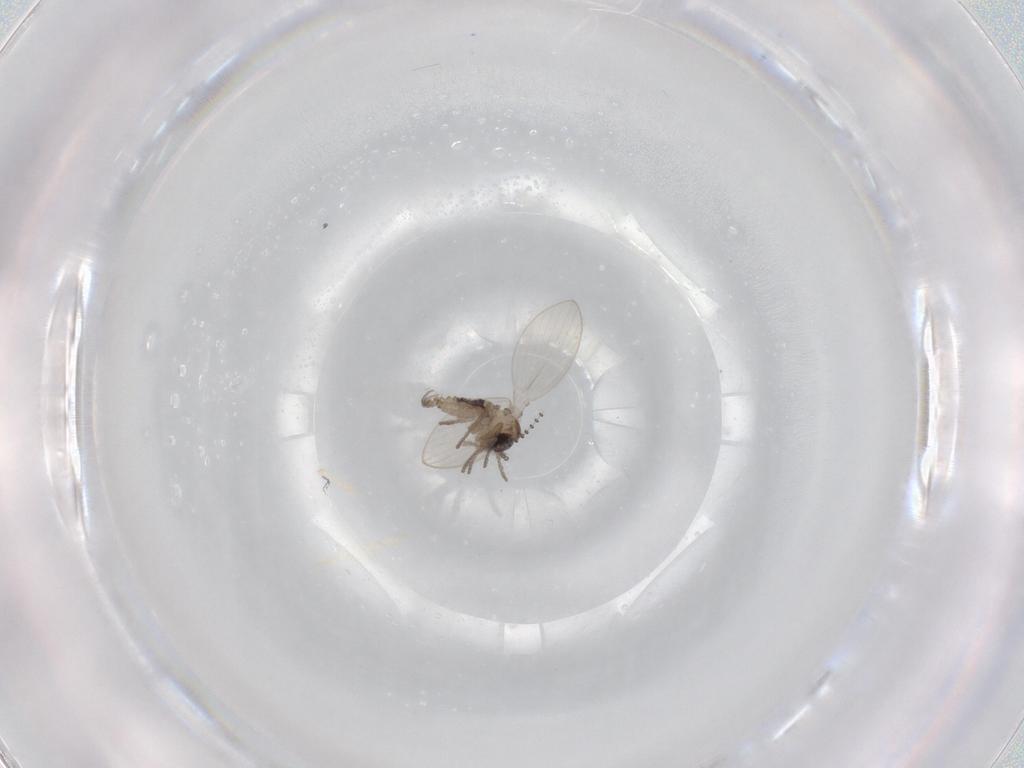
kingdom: Animalia
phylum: Arthropoda
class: Insecta
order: Diptera
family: Psychodidae
